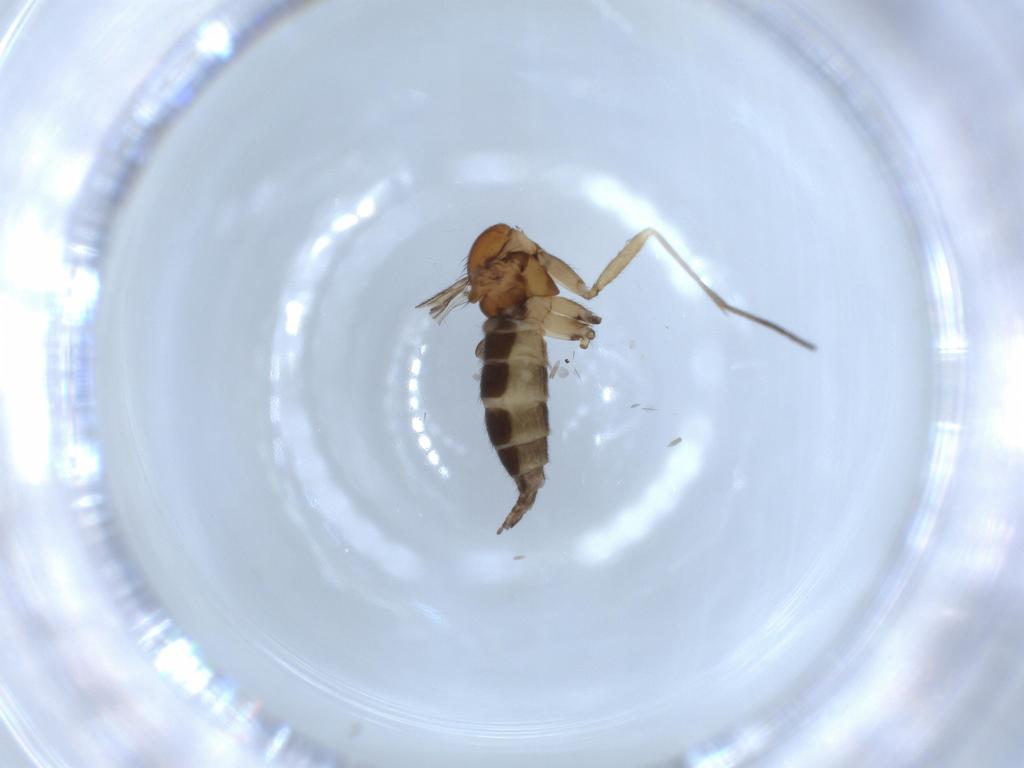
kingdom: Animalia
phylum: Arthropoda
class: Insecta
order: Diptera
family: Sciaridae
